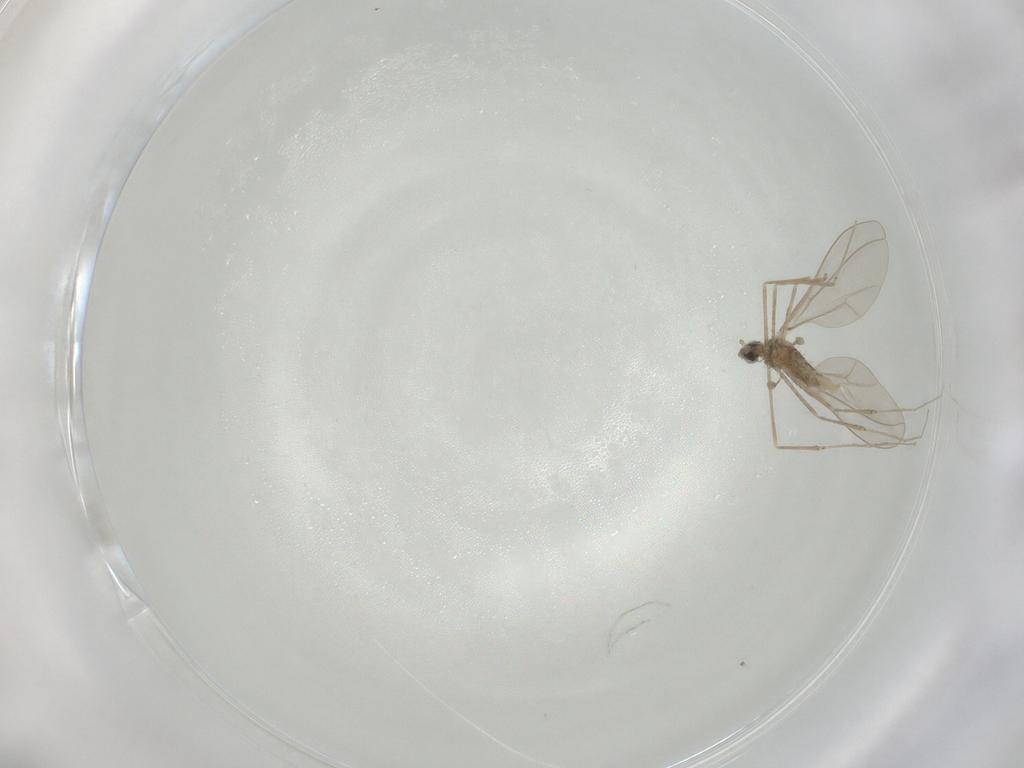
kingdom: Animalia
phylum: Arthropoda
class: Insecta
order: Diptera
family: Cecidomyiidae
